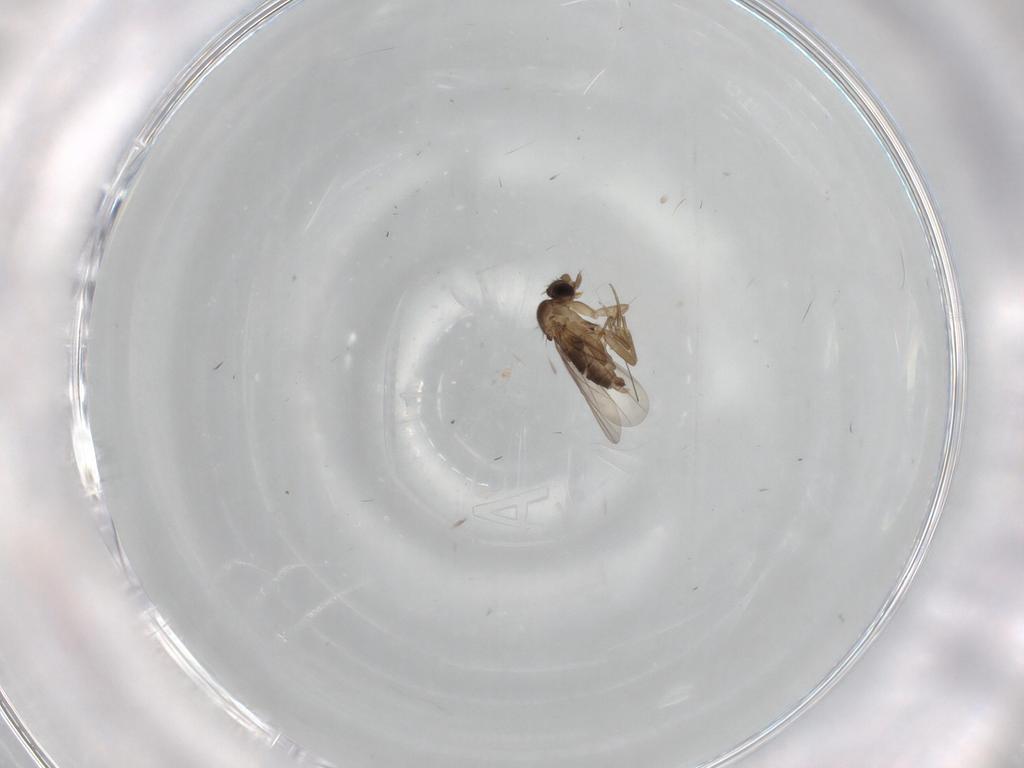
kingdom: Animalia
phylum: Arthropoda
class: Insecta
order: Diptera
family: Phoridae
